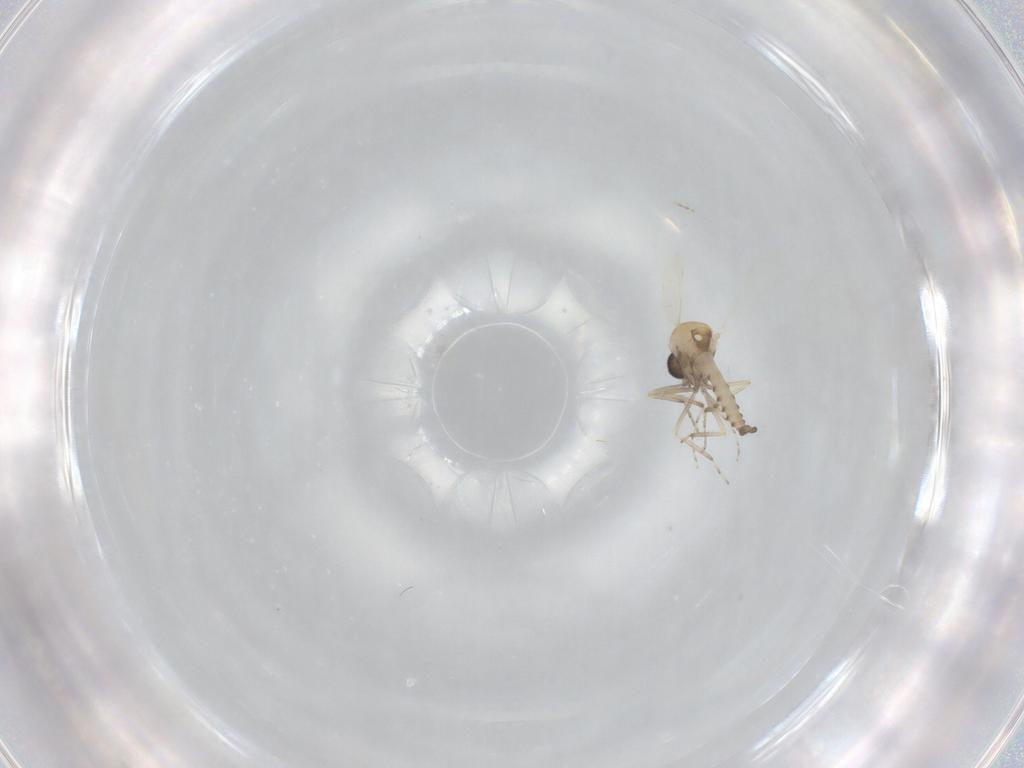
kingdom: Animalia
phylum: Arthropoda
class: Insecta
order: Diptera
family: Ceratopogonidae
